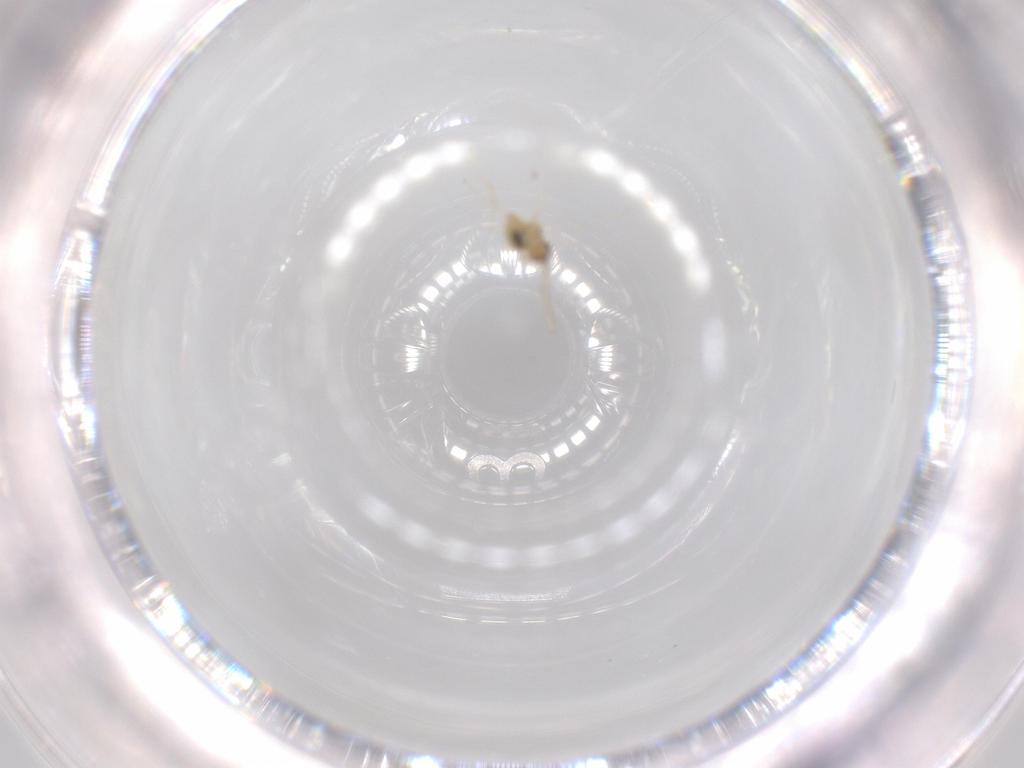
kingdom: Animalia
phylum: Arthropoda
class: Insecta
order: Diptera
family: Cecidomyiidae
